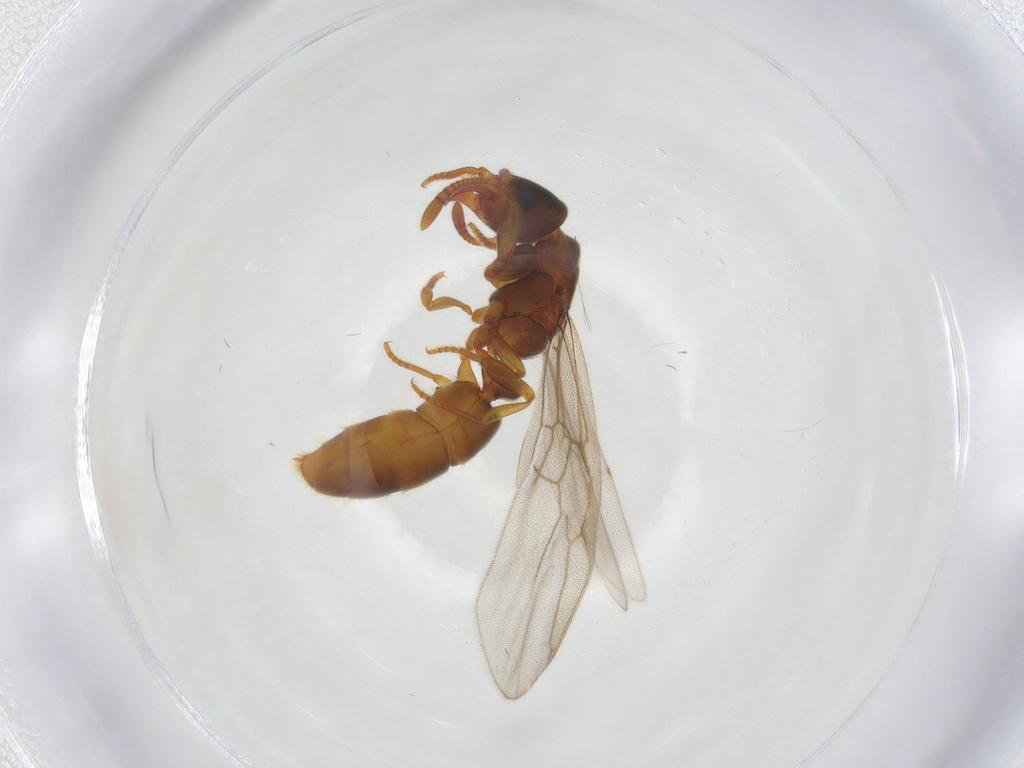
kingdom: Animalia
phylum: Arthropoda
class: Insecta
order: Hymenoptera
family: Formicidae
